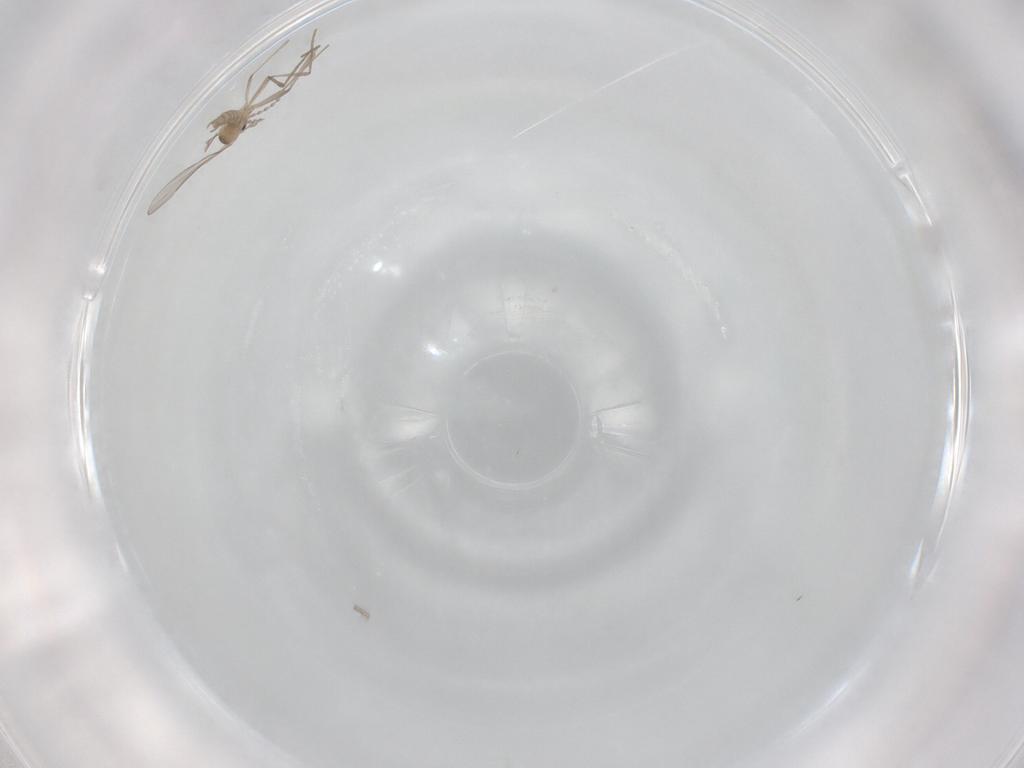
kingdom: Animalia
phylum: Arthropoda
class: Insecta
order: Diptera
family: Cecidomyiidae
